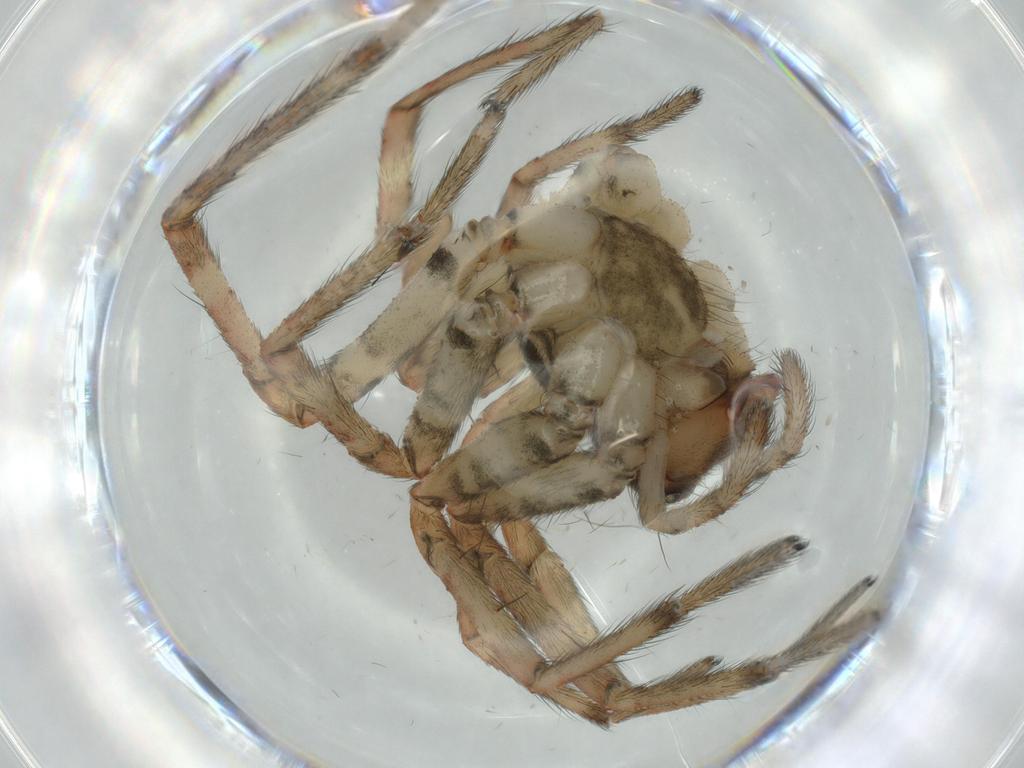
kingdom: Animalia
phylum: Arthropoda
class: Arachnida
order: Araneae
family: Agelenidae
